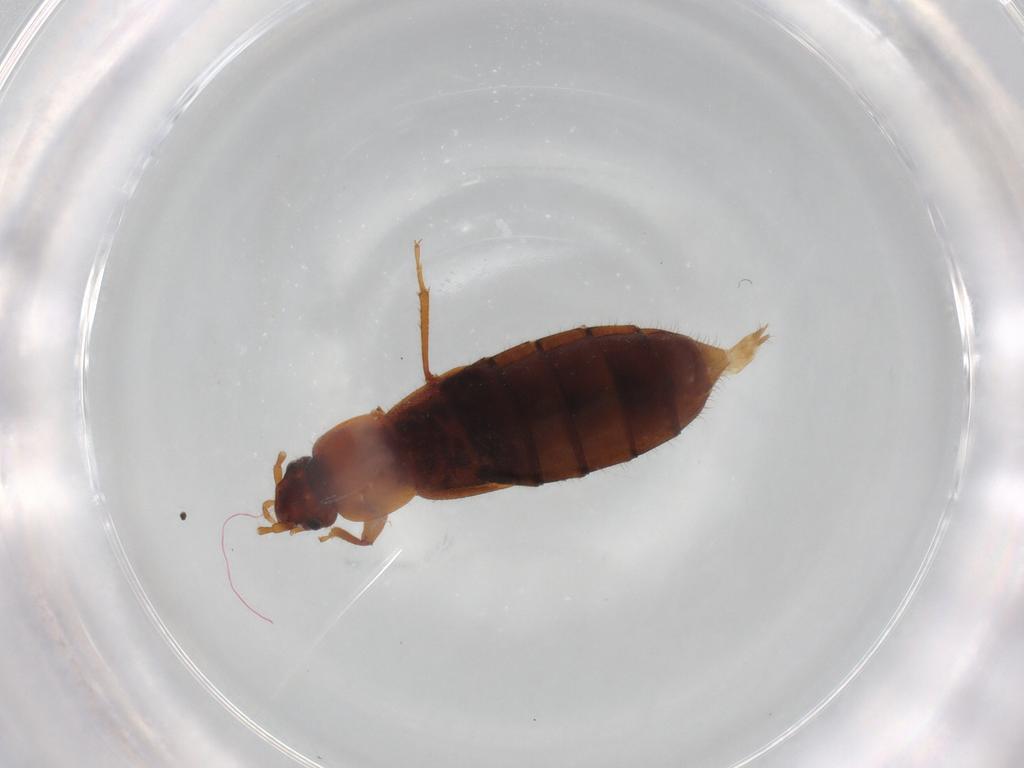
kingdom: Animalia
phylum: Arthropoda
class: Insecta
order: Coleoptera
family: Staphylinidae
